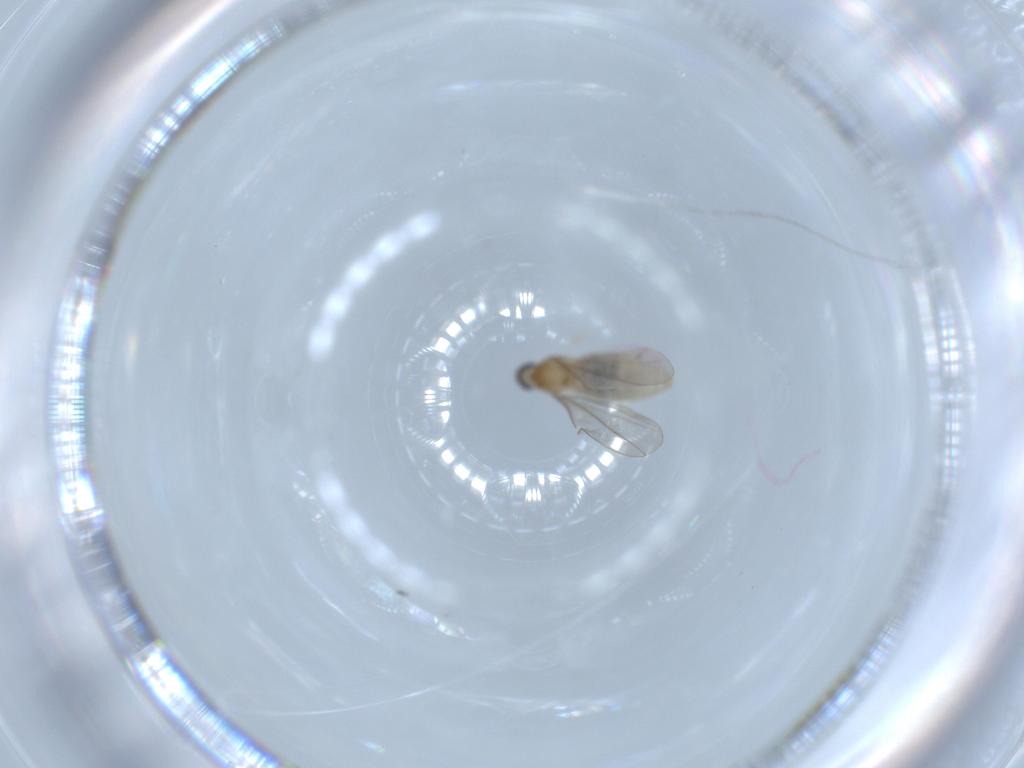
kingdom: Animalia
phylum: Arthropoda
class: Insecta
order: Diptera
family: Cecidomyiidae
